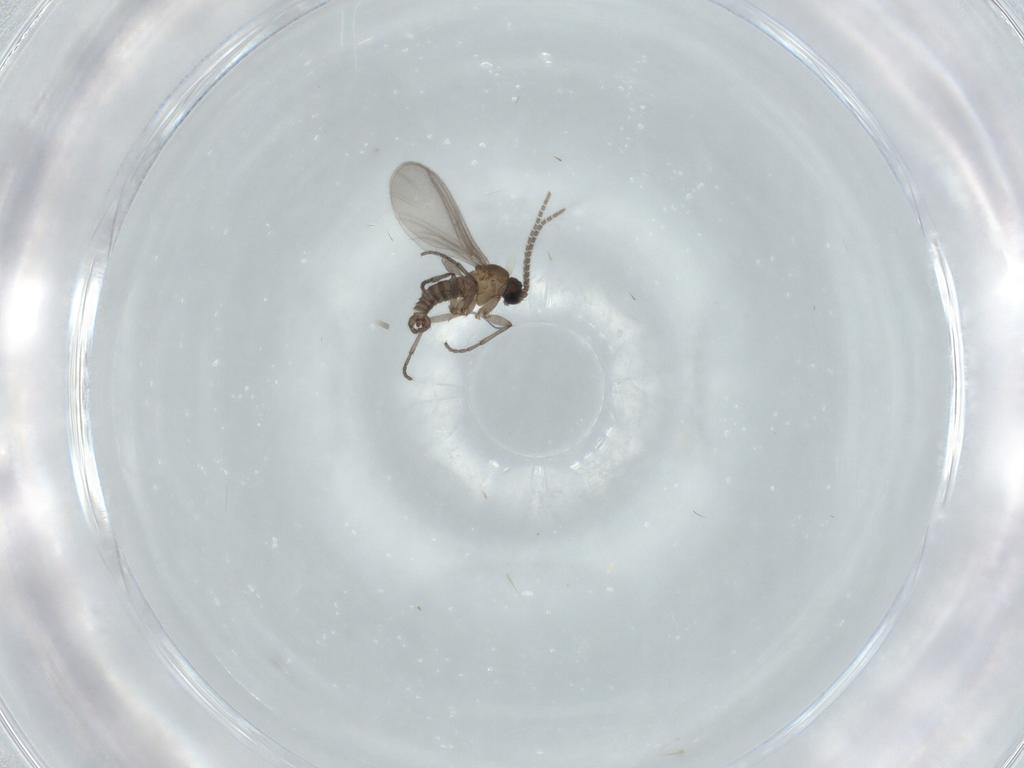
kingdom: Animalia
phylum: Arthropoda
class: Insecta
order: Diptera
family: Sciaridae
